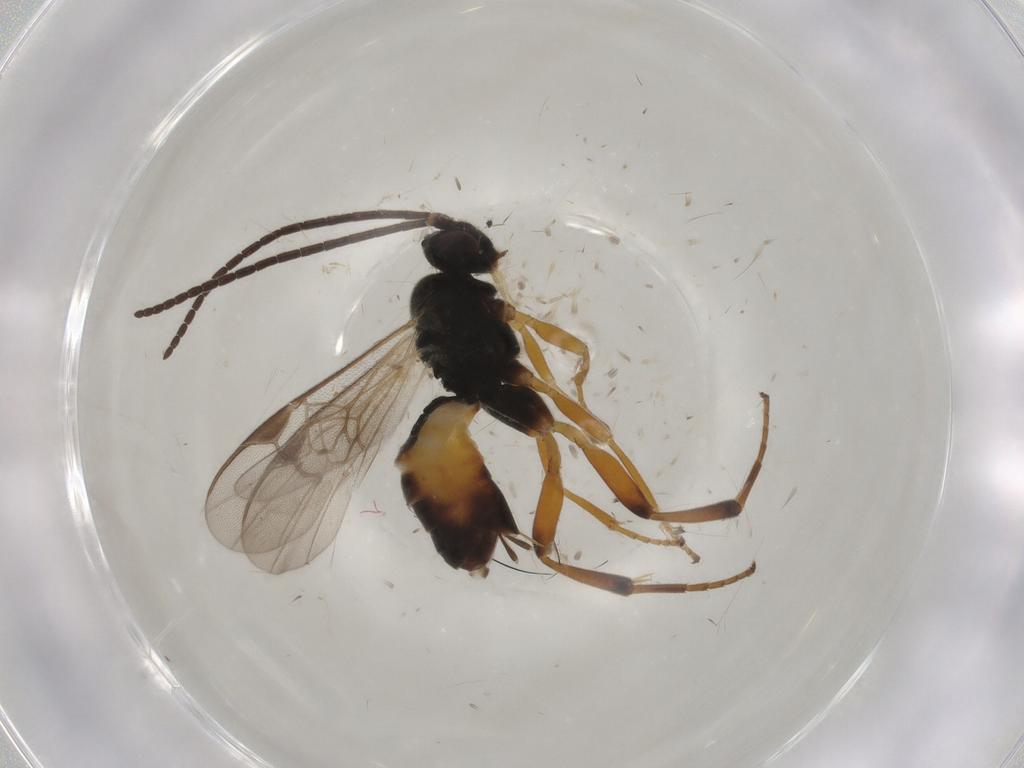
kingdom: Animalia
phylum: Arthropoda
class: Insecta
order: Hymenoptera
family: Braconidae
